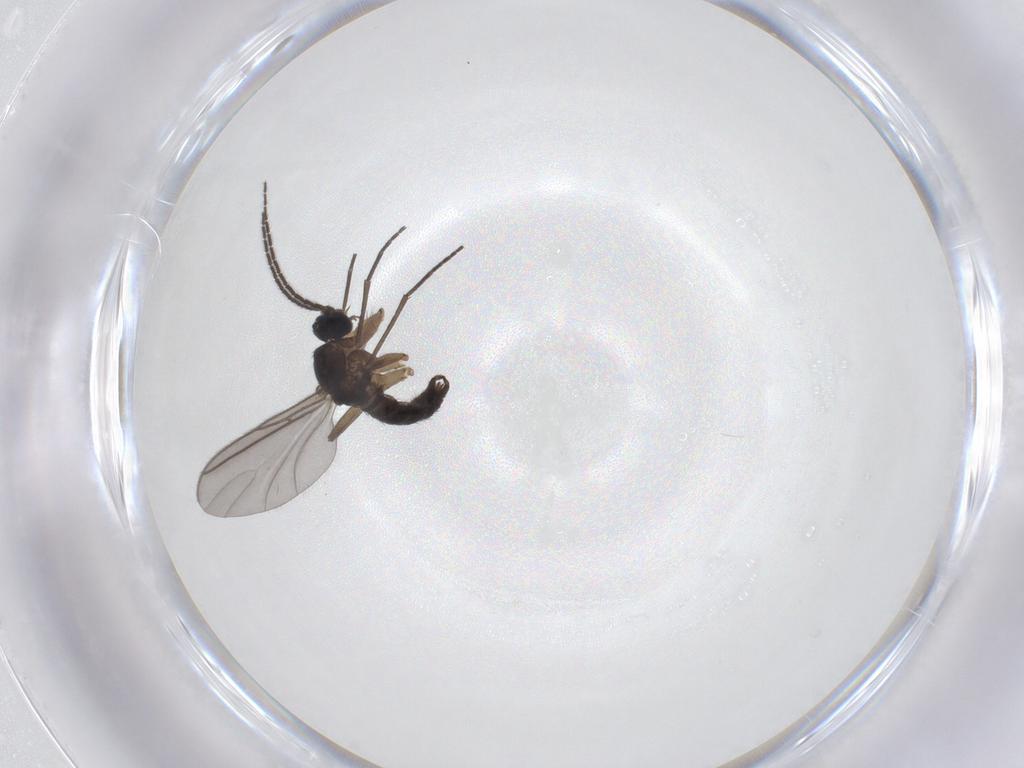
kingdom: Animalia
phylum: Arthropoda
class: Insecta
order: Diptera
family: Sciaridae
